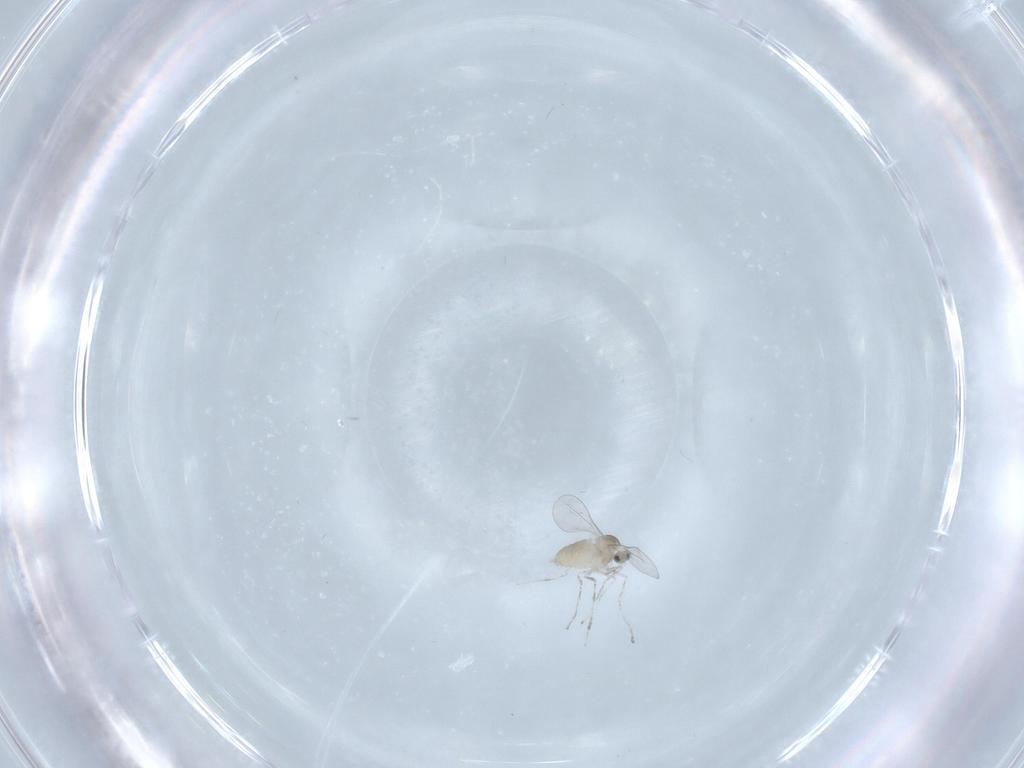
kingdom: Animalia
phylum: Arthropoda
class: Insecta
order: Diptera
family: Cecidomyiidae
